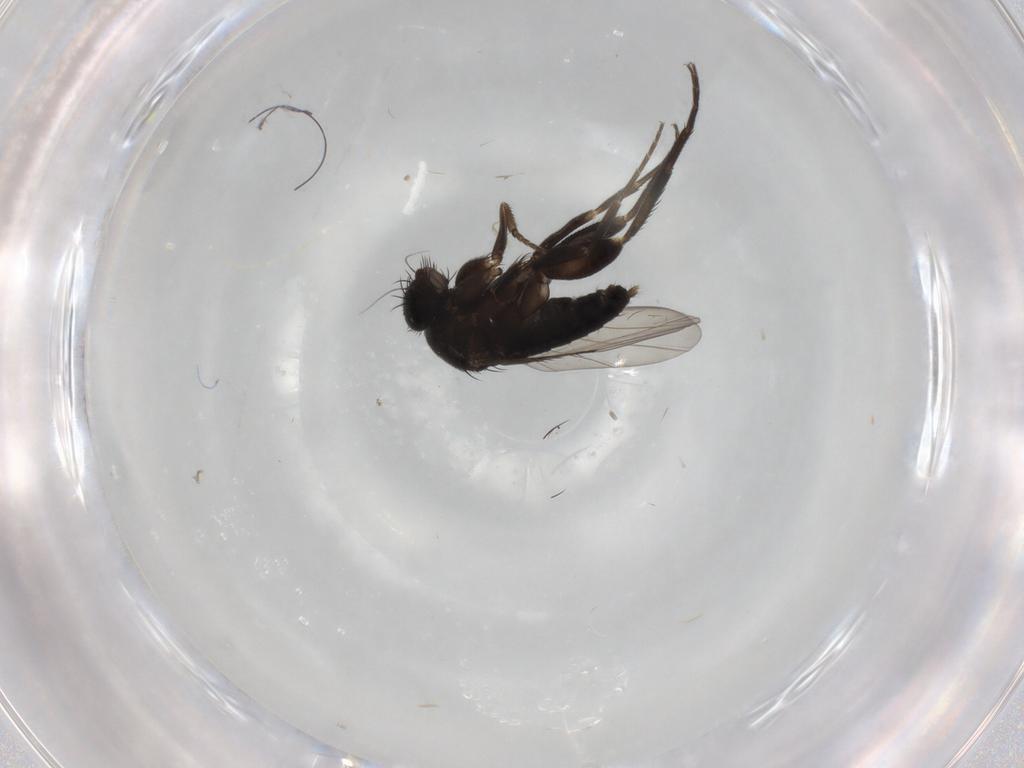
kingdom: Animalia
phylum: Arthropoda
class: Insecta
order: Diptera
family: Phoridae
